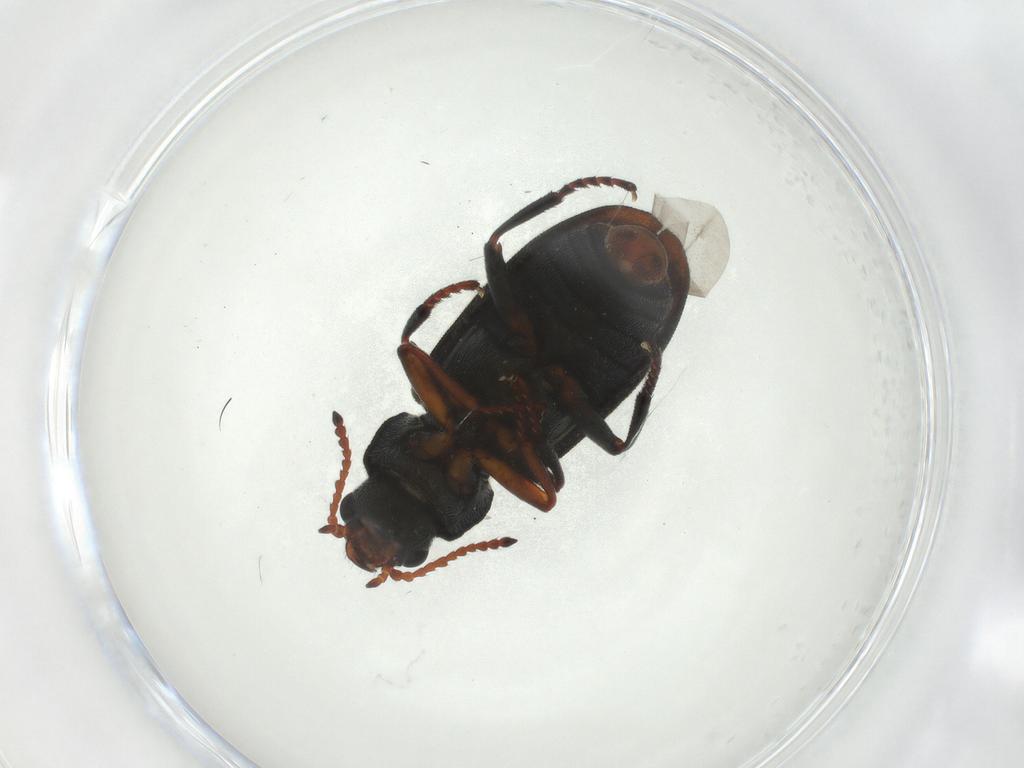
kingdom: Animalia
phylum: Arthropoda
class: Insecta
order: Coleoptera
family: Melyridae
